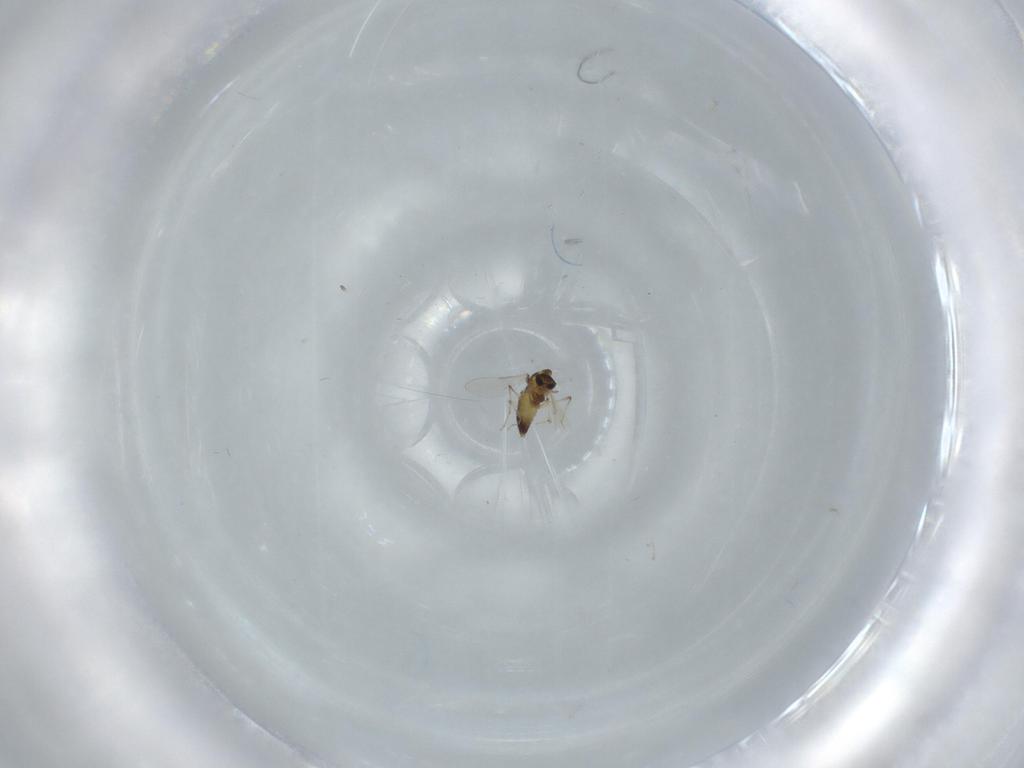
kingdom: Animalia
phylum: Arthropoda
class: Insecta
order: Diptera
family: Chironomidae
